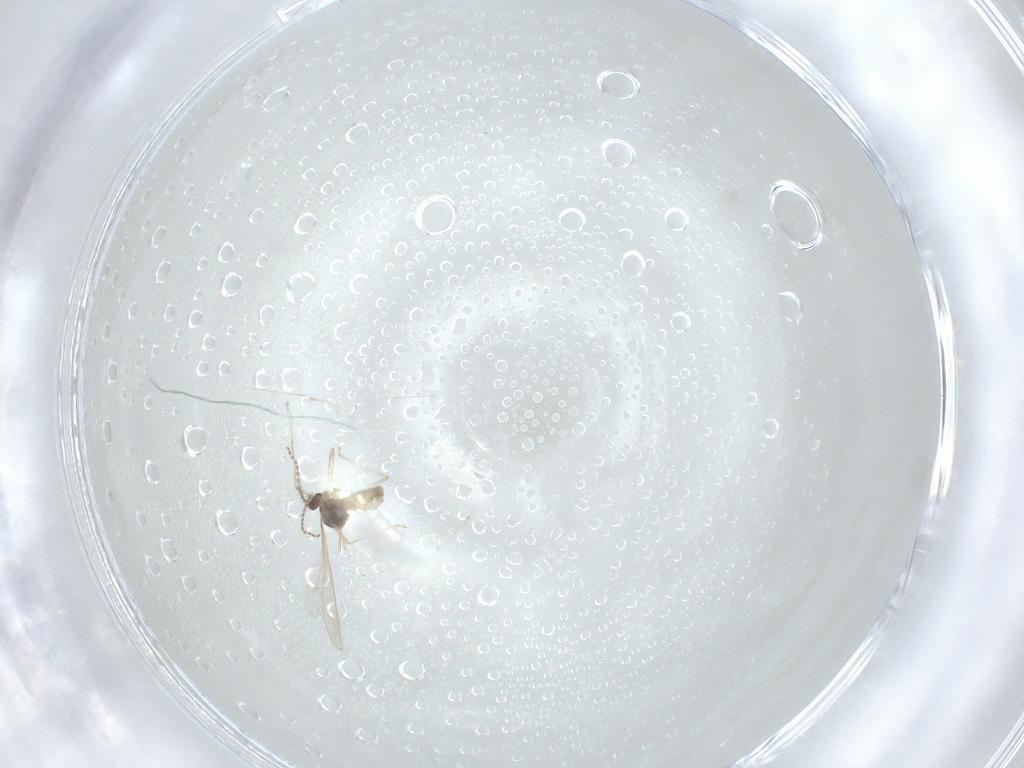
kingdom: Animalia
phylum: Arthropoda
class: Insecta
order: Diptera
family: Cecidomyiidae
